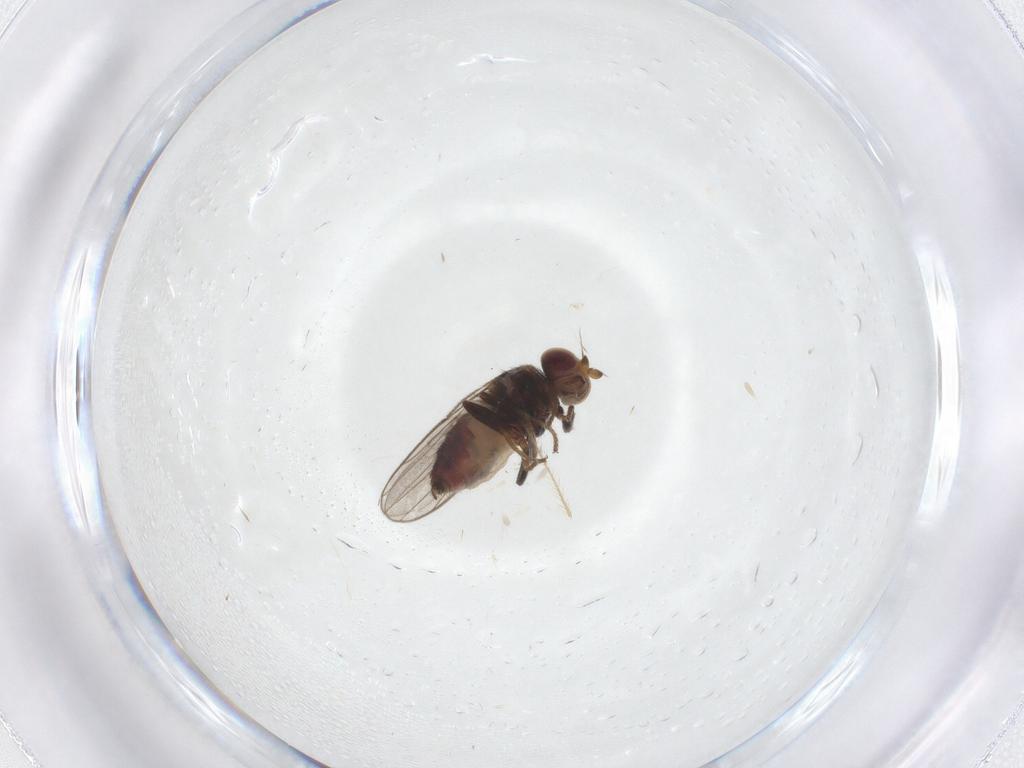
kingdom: Animalia
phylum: Arthropoda
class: Insecta
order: Diptera
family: Chloropidae
